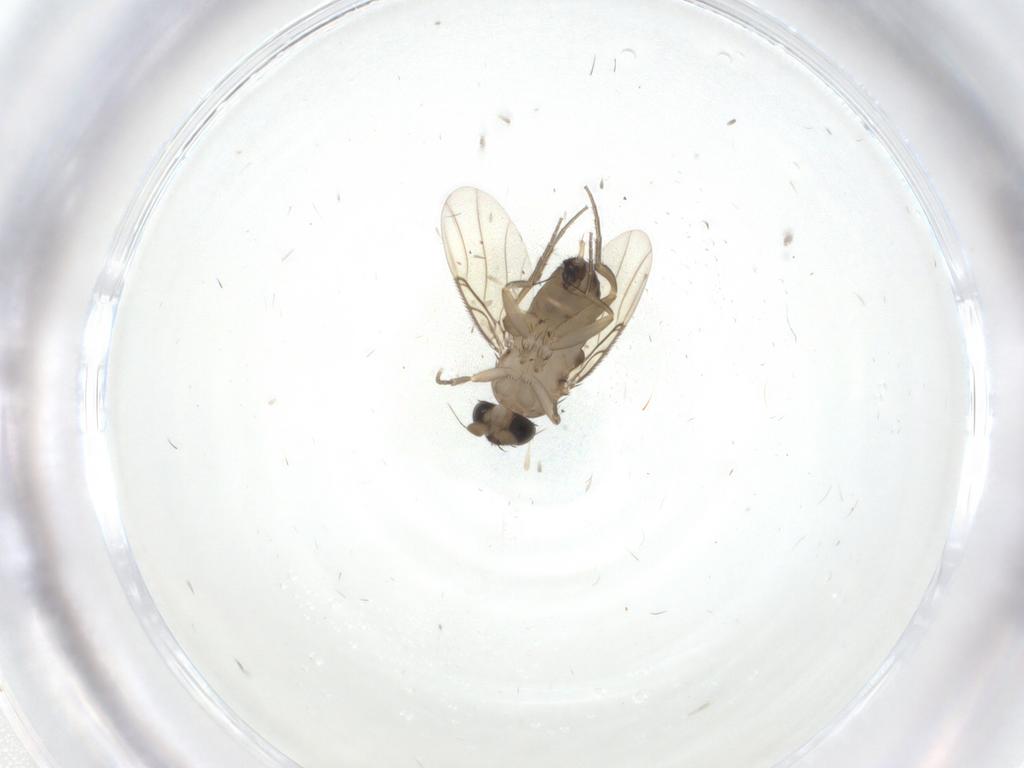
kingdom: Animalia
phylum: Arthropoda
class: Insecta
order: Diptera
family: Phoridae
